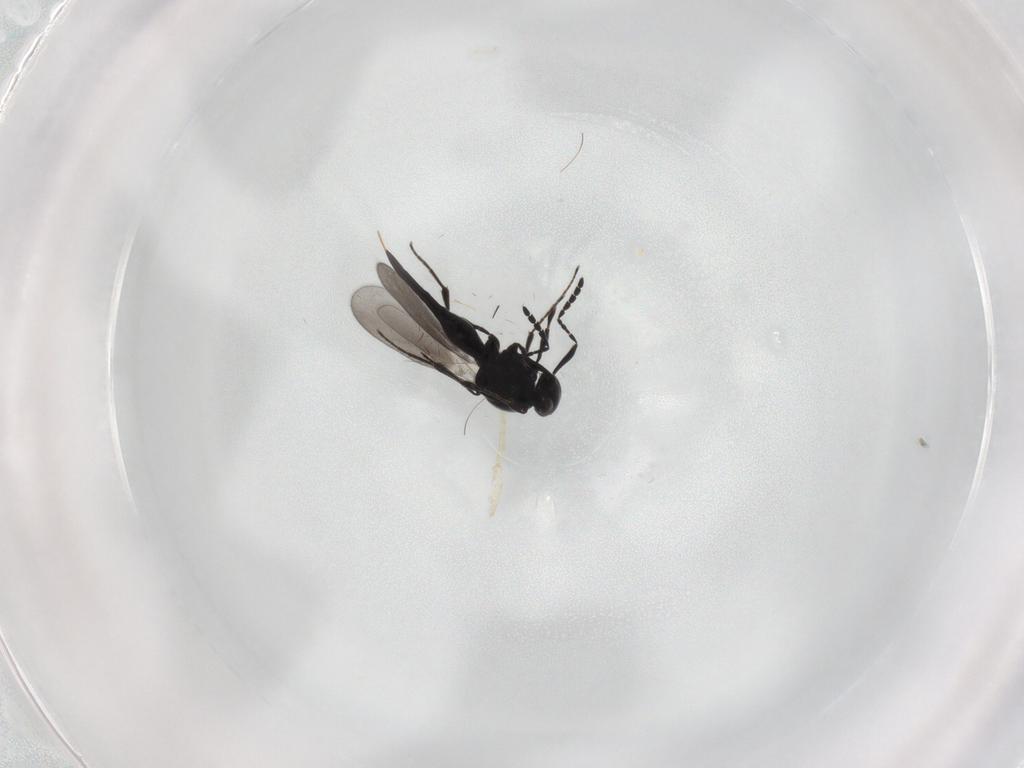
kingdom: Animalia
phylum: Arthropoda
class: Insecta
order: Hymenoptera
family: Platygastridae
